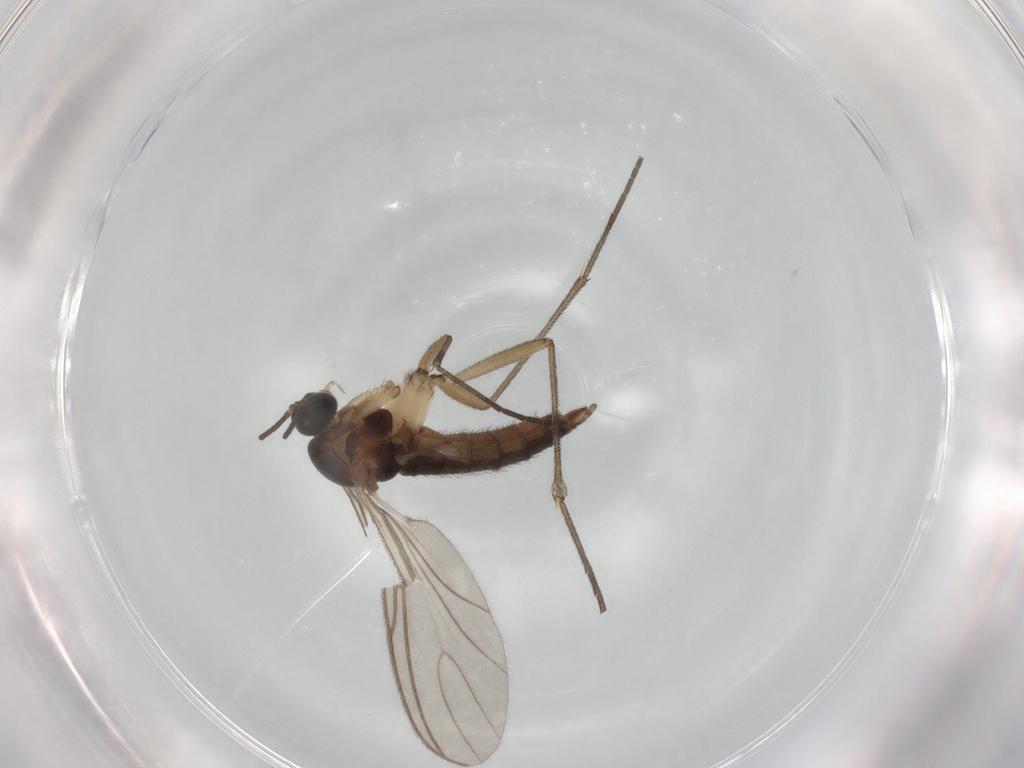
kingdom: Animalia
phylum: Arthropoda
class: Insecta
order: Diptera
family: Sciaridae
